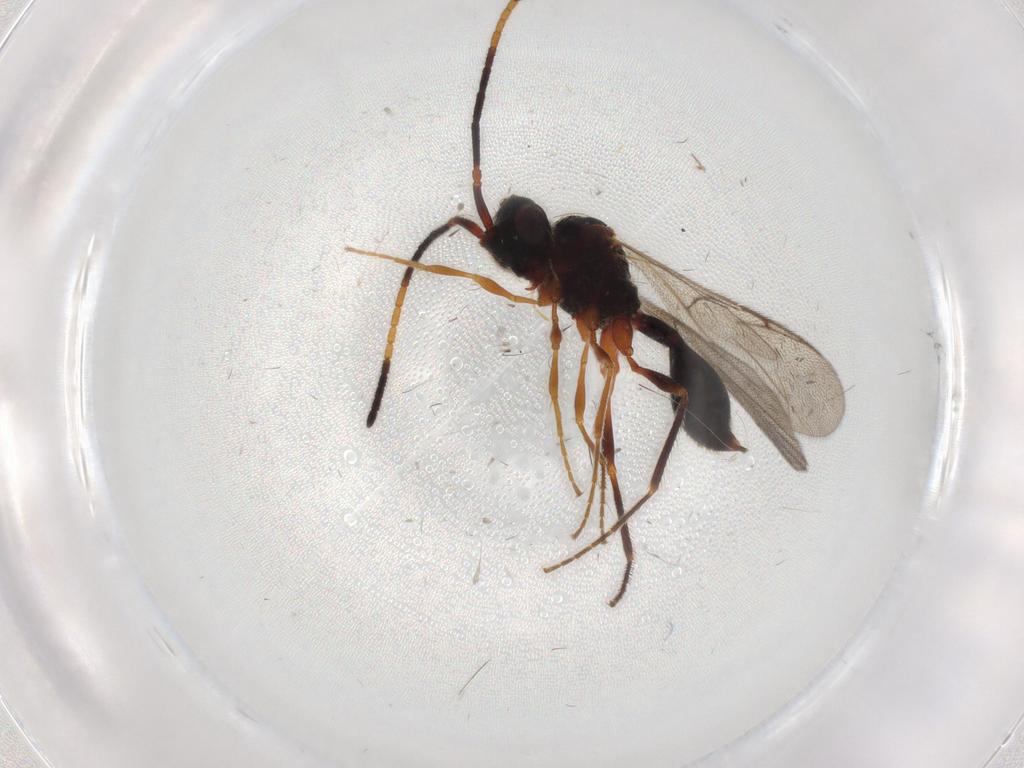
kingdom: Animalia
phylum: Arthropoda
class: Insecta
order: Hymenoptera
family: Diapriidae
